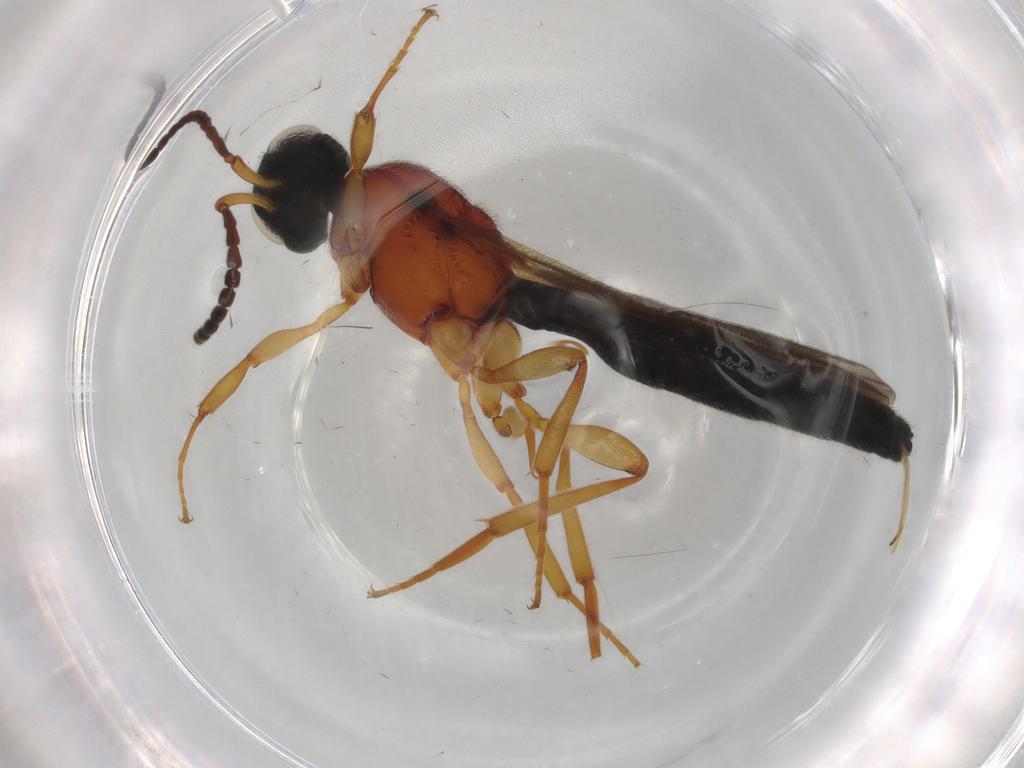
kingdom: Animalia
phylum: Arthropoda
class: Insecta
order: Hymenoptera
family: Scelionidae
